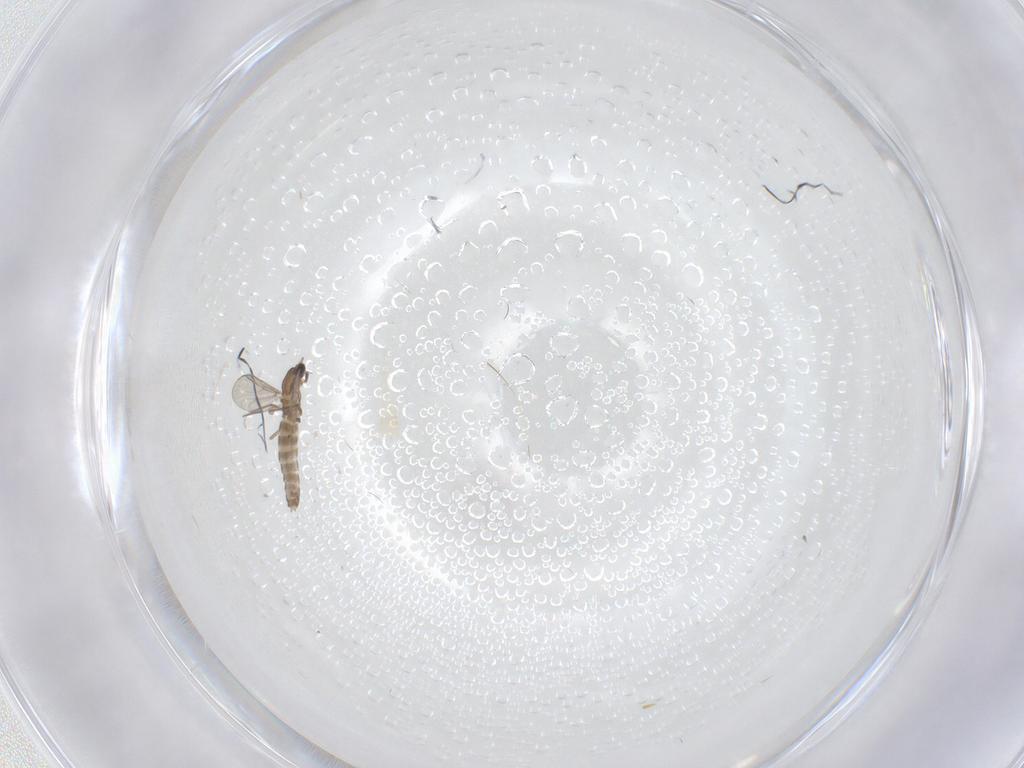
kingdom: Animalia
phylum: Arthropoda
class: Insecta
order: Diptera
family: Chironomidae
